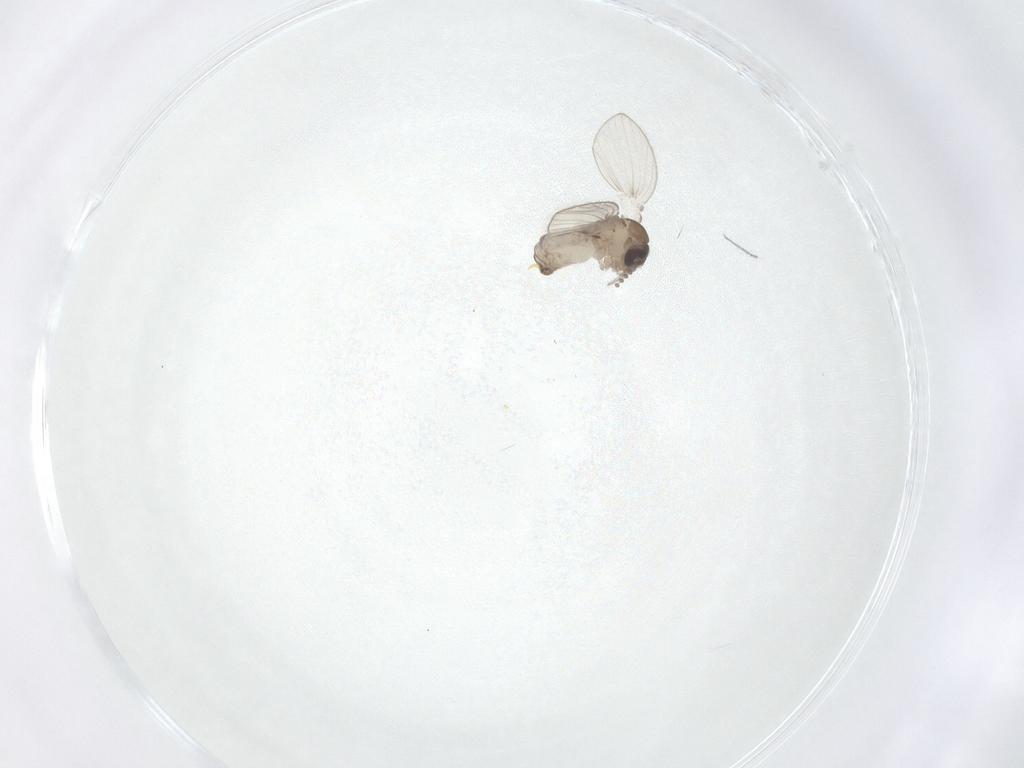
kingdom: Animalia
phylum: Arthropoda
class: Insecta
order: Diptera
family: Psychodidae
